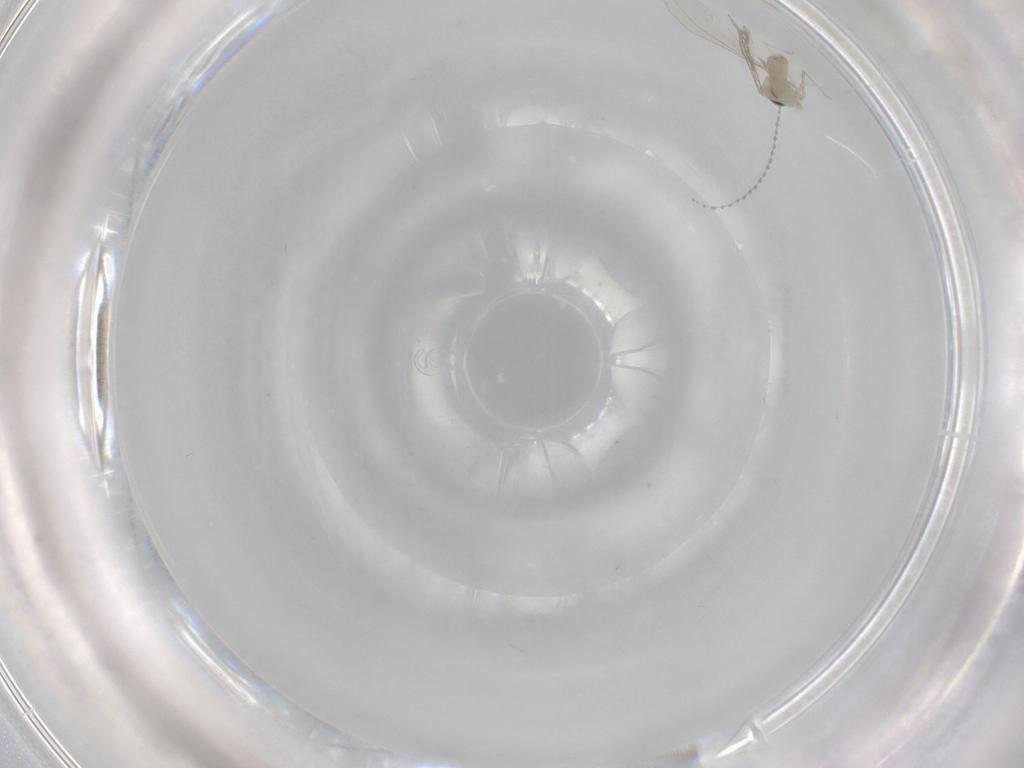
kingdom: Animalia
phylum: Arthropoda
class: Insecta
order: Diptera
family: Cecidomyiidae
